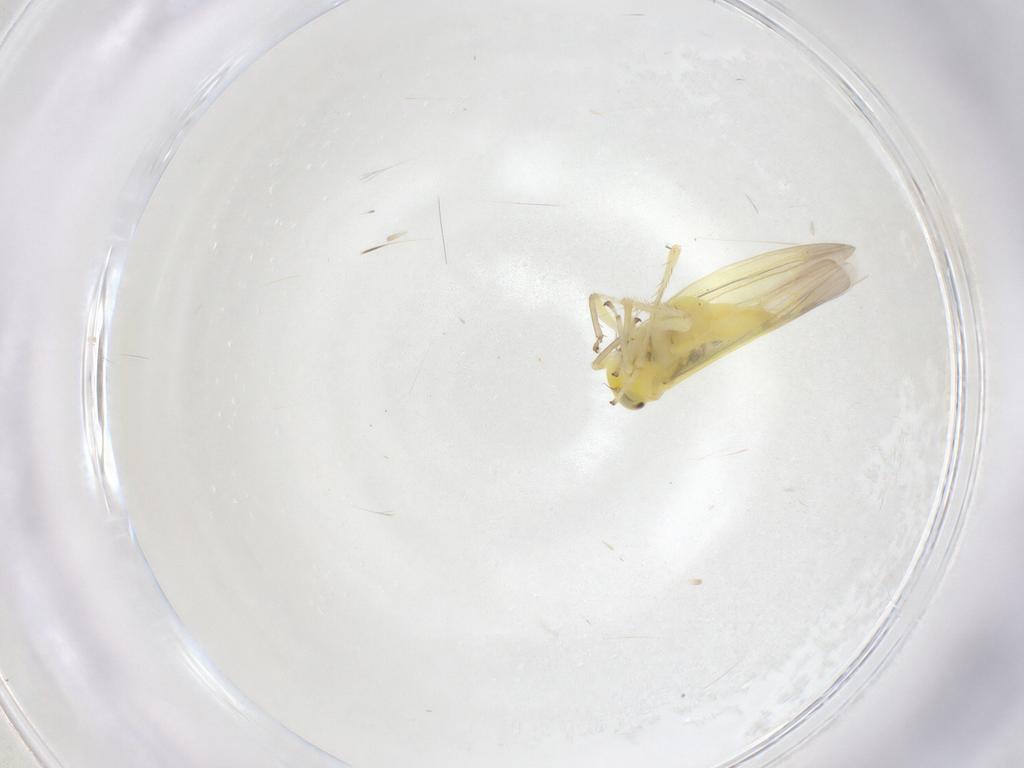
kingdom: Animalia
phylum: Arthropoda
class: Insecta
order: Hemiptera
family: Cicadellidae
